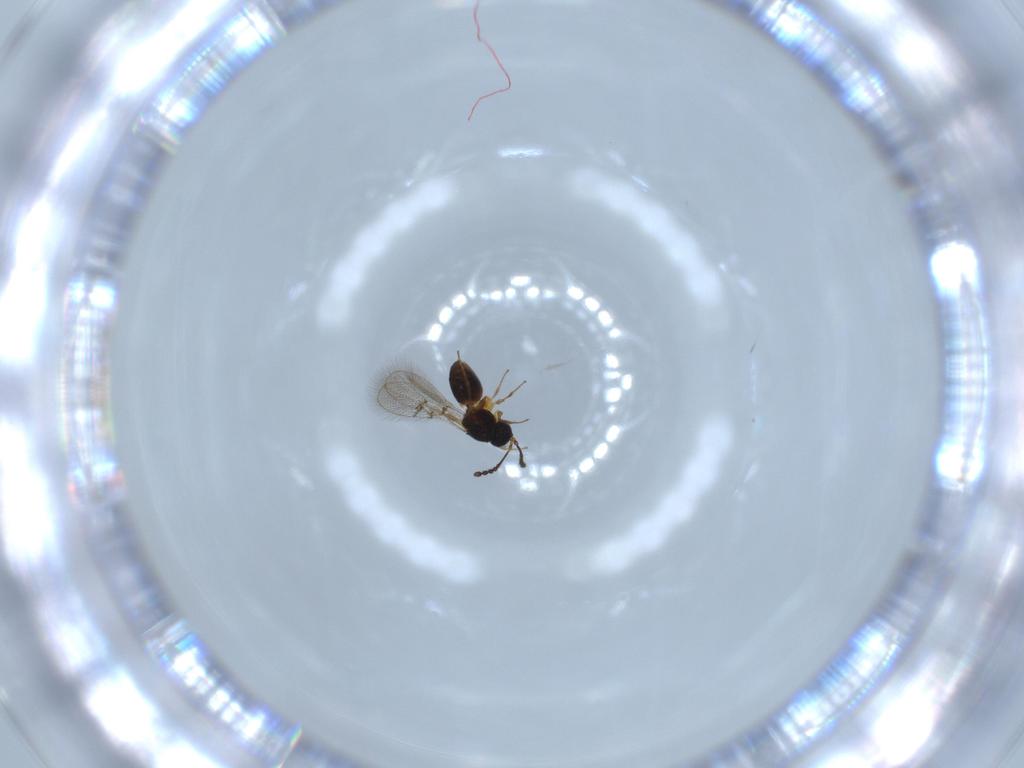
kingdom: Animalia
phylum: Arthropoda
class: Insecta
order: Hymenoptera
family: Figitidae
